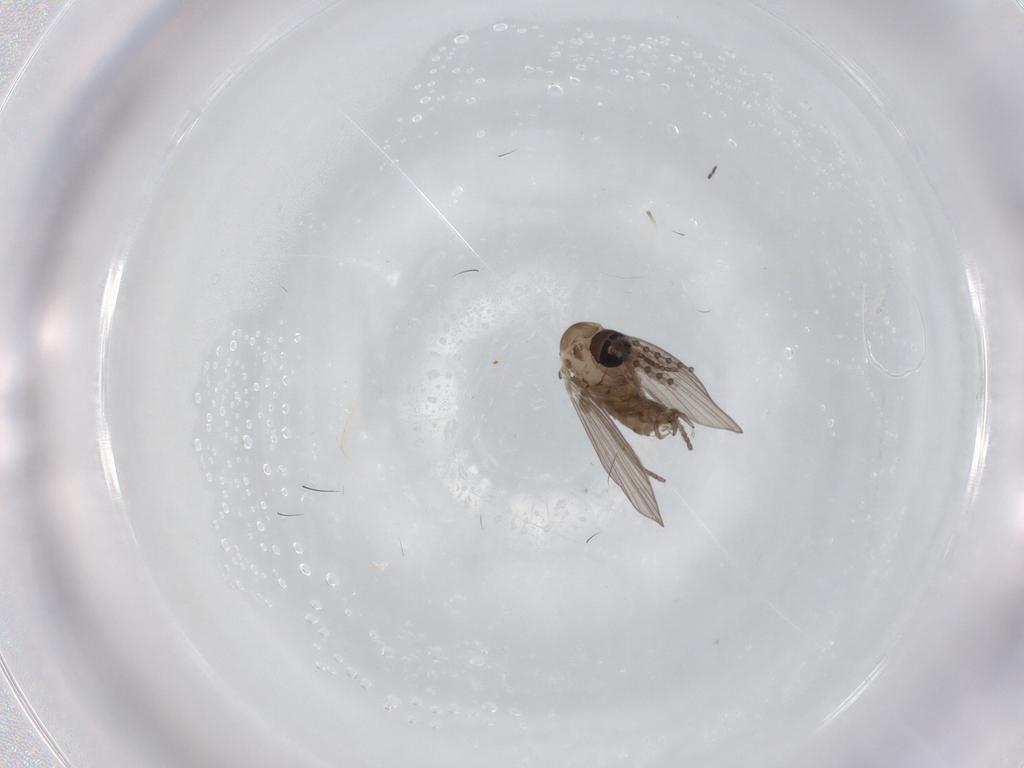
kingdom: Animalia
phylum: Arthropoda
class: Insecta
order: Diptera
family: Psychodidae
